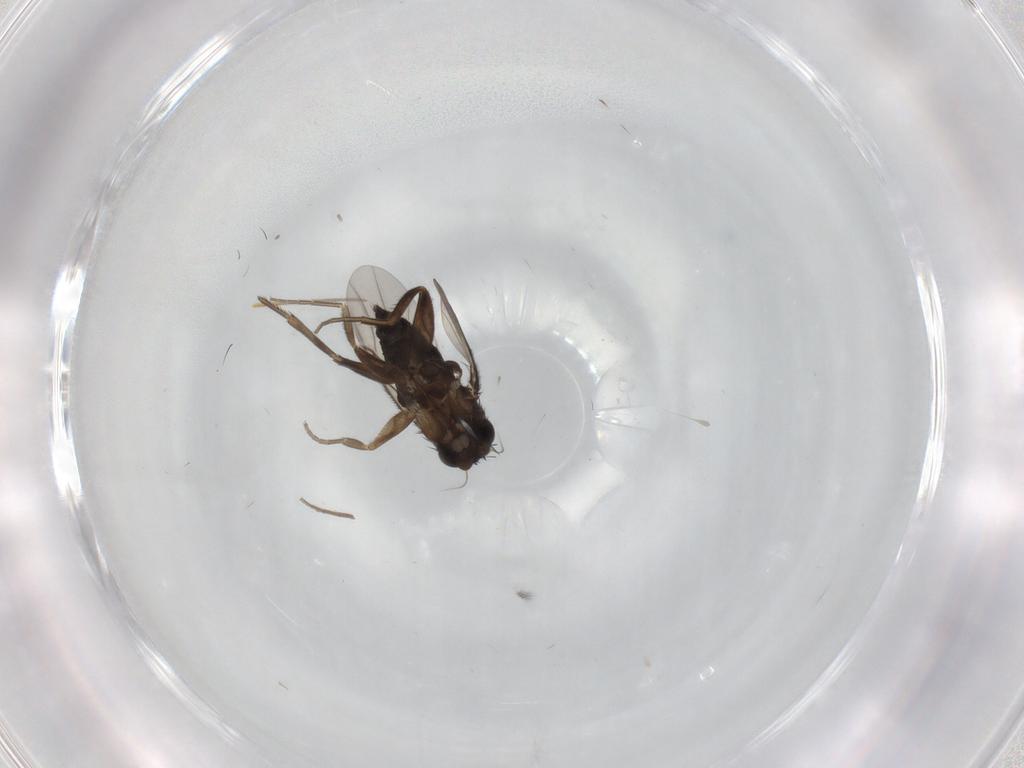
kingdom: Animalia
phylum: Arthropoda
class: Insecta
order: Diptera
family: Phoridae
